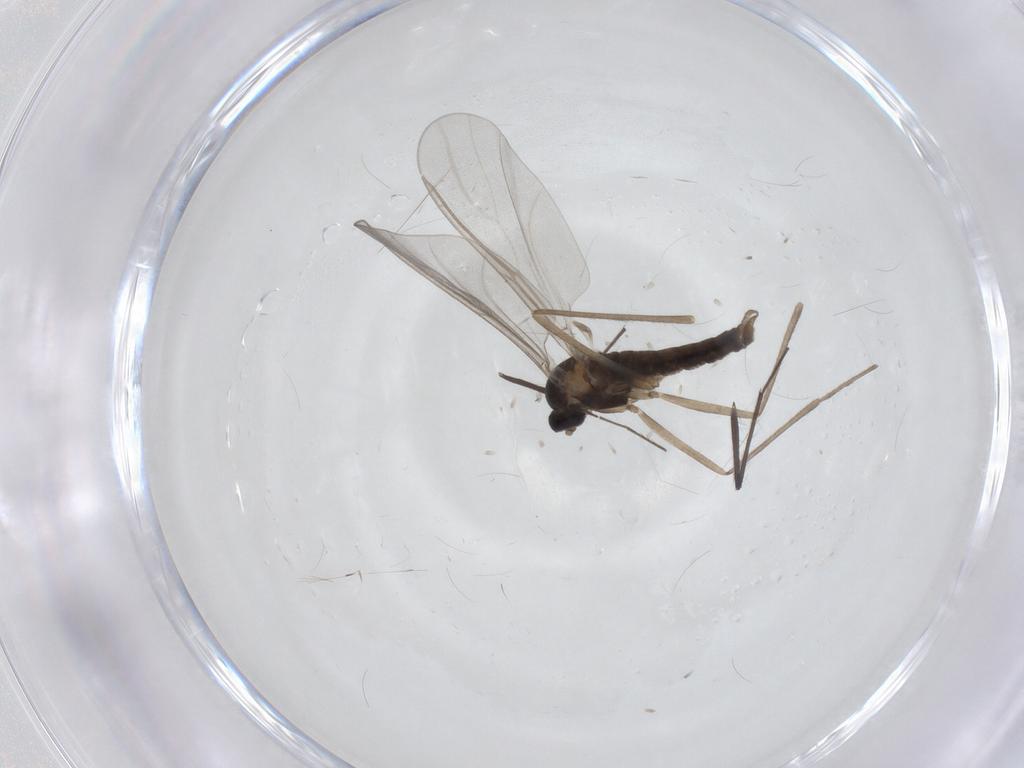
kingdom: Animalia
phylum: Arthropoda
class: Insecta
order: Diptera
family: Cecidomyiidae
